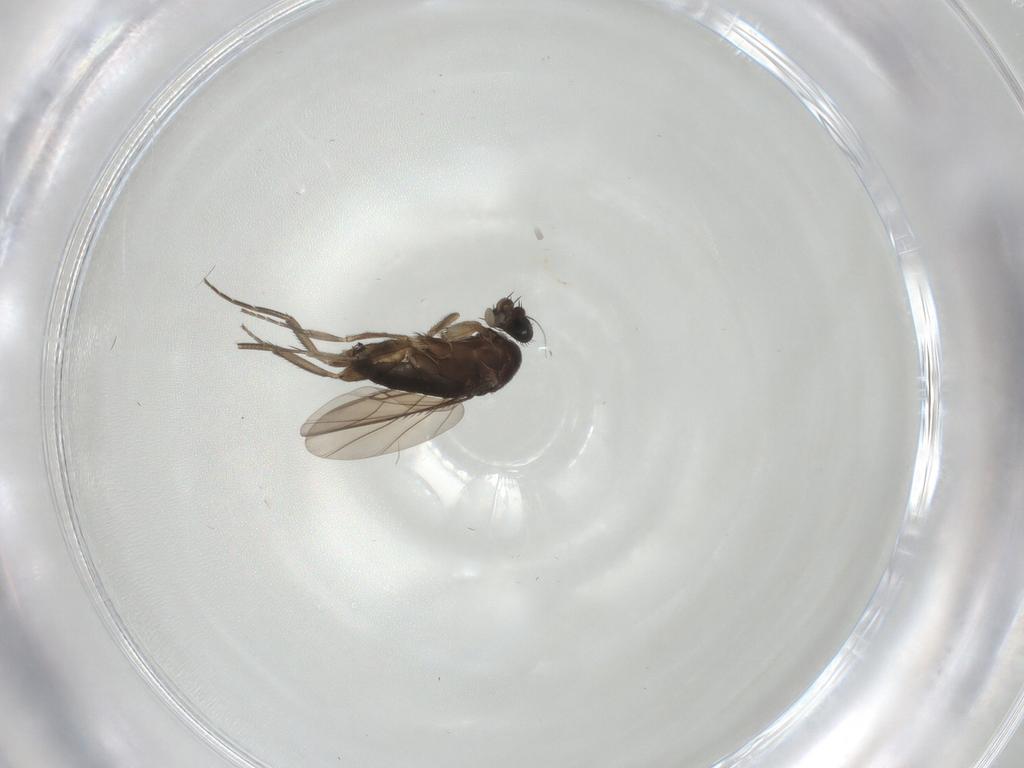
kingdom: Animalia
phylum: Arthropoda
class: Insecta
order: Diptera
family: Phoridae
